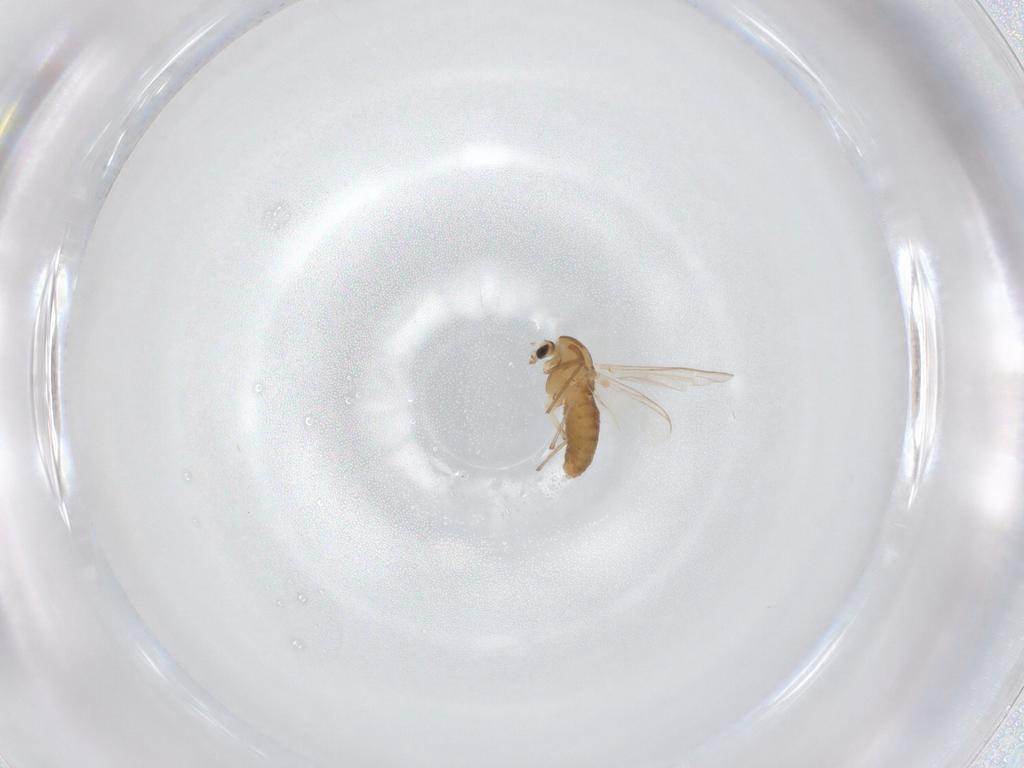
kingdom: Animalia
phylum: Arthropoda
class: Insecta
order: Diptera
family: Chironomidae
